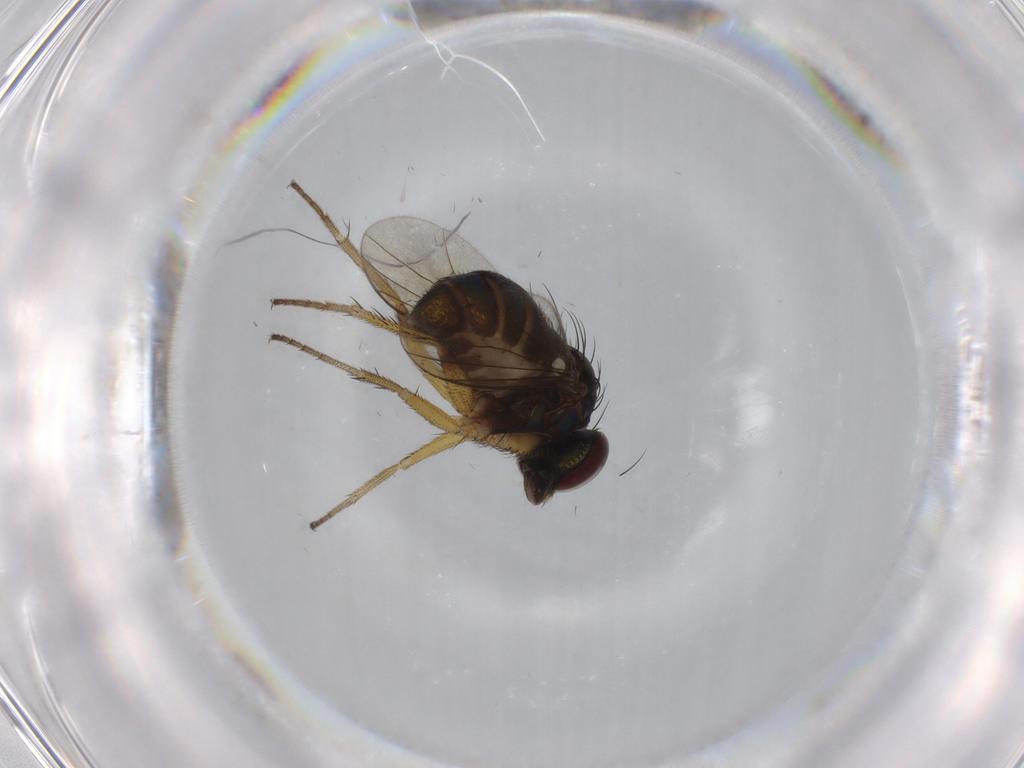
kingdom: Animalia
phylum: Arthropoda
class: Insecta
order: Diptera
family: Dolichopodidae
